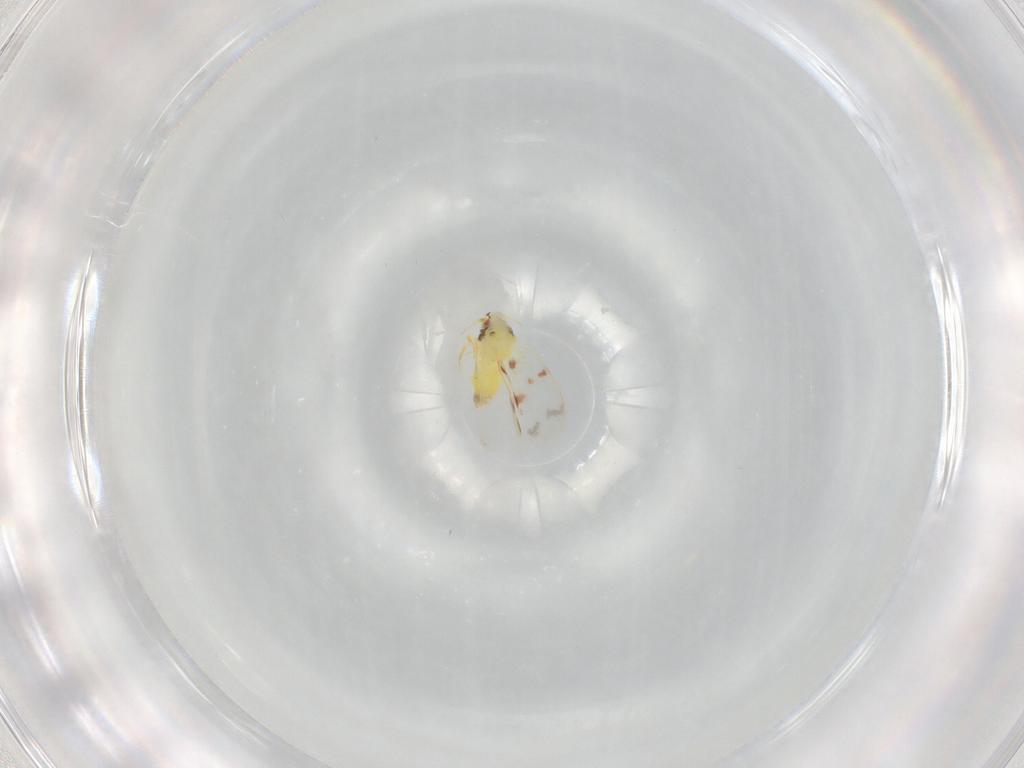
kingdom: Animalia
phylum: Arthropoda
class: Insecta
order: Hemiptera
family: Aleyrodidae
